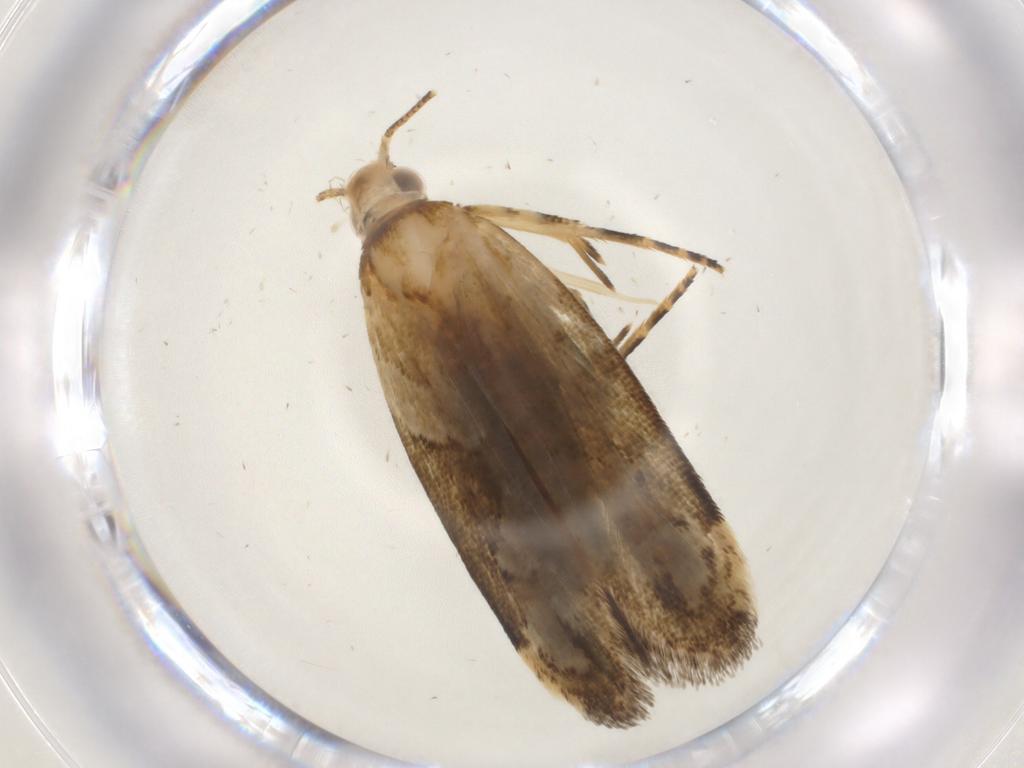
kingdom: Animalia
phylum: Arthropoda
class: Insecta
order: Lepidoptera
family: Gelechiidae
